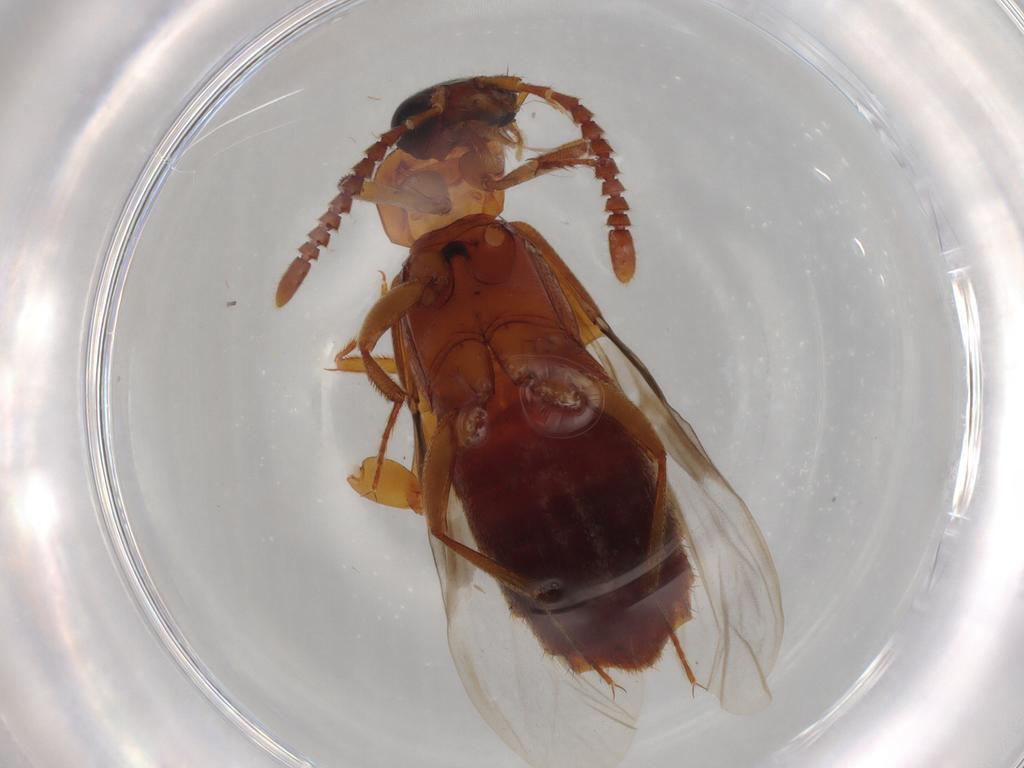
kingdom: Animalia
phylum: Arthropoda
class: Insecta
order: Coleoptera
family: Staphylinidae
